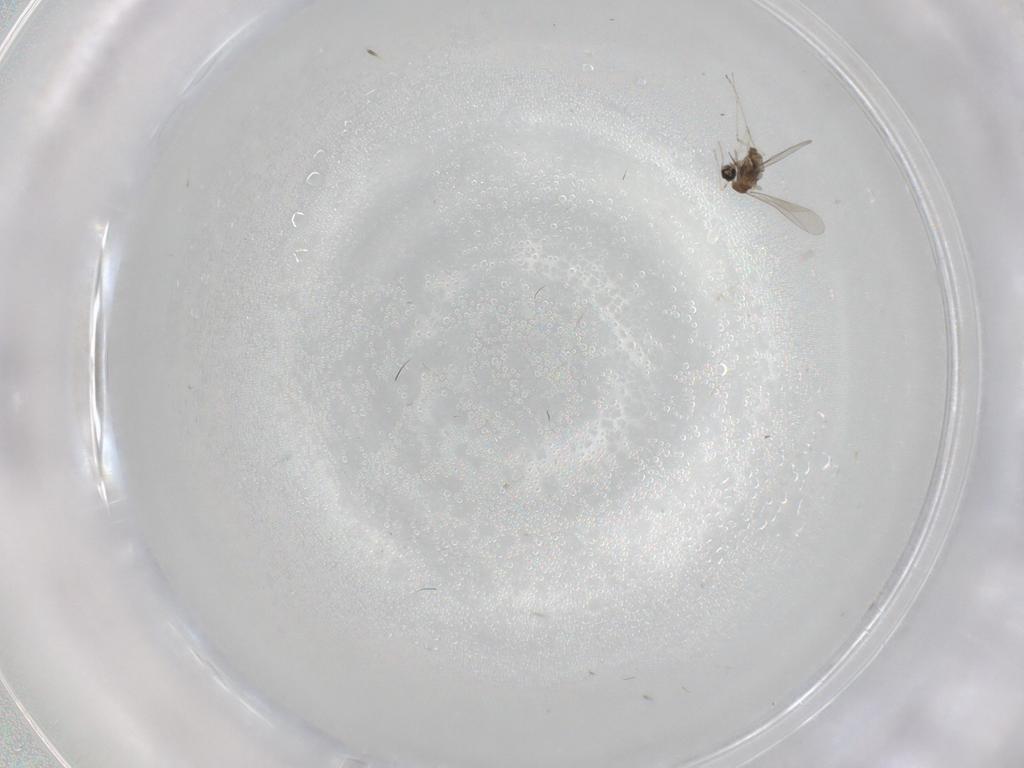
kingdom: Animalia
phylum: Arthropoda
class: Insecta
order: Diptera
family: Cecidomyiidae
